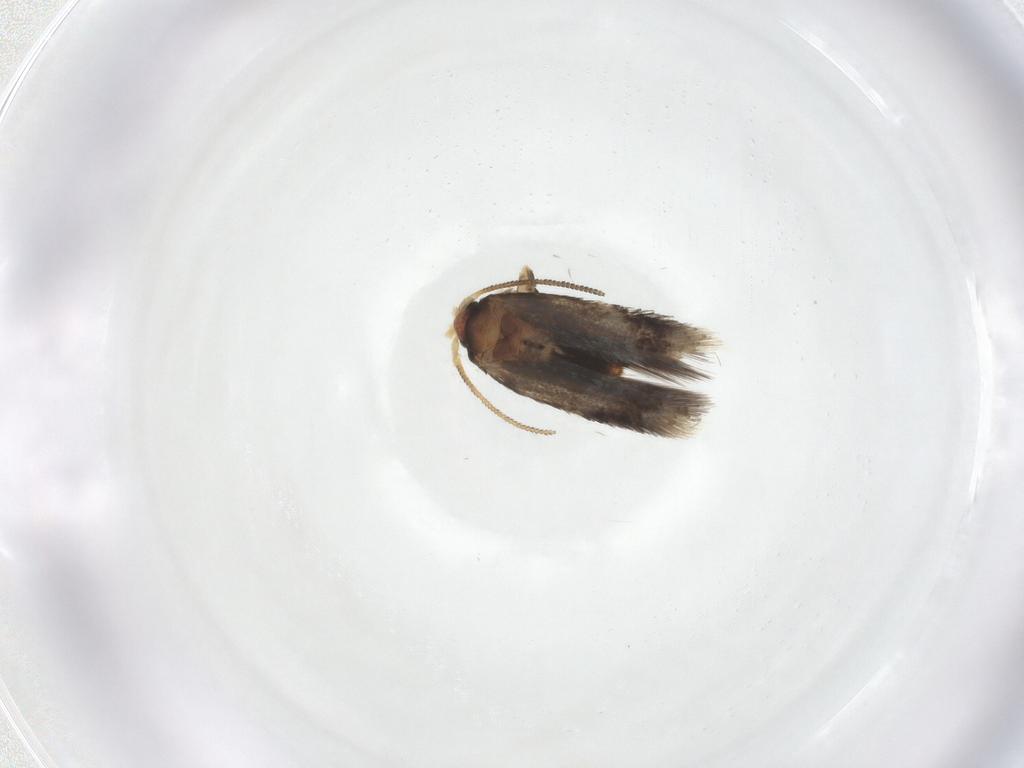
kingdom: Animalia
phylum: Arthropoda
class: Insecta
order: Lepidoptera
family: Nepticulidae
